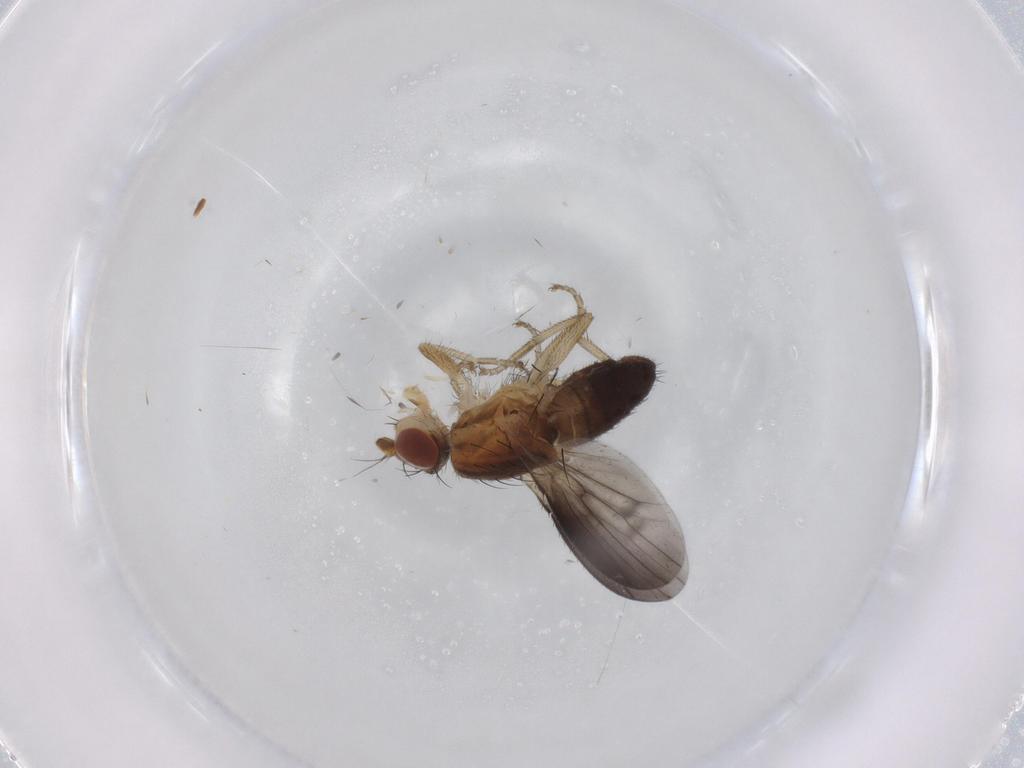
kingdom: Animalia
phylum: Arthropoda
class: Insecta
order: Diptera
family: Heleomyzidae
